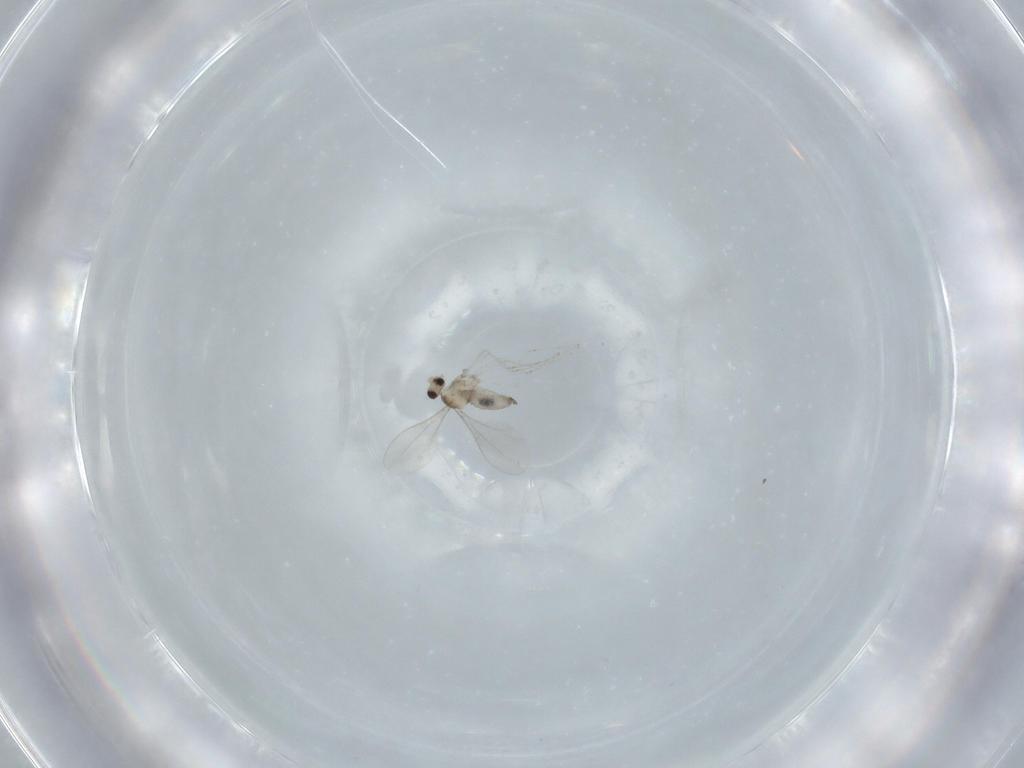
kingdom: Animalia
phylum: Arthropoda
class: Insecta
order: Diptera
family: Cecidomyiidae
